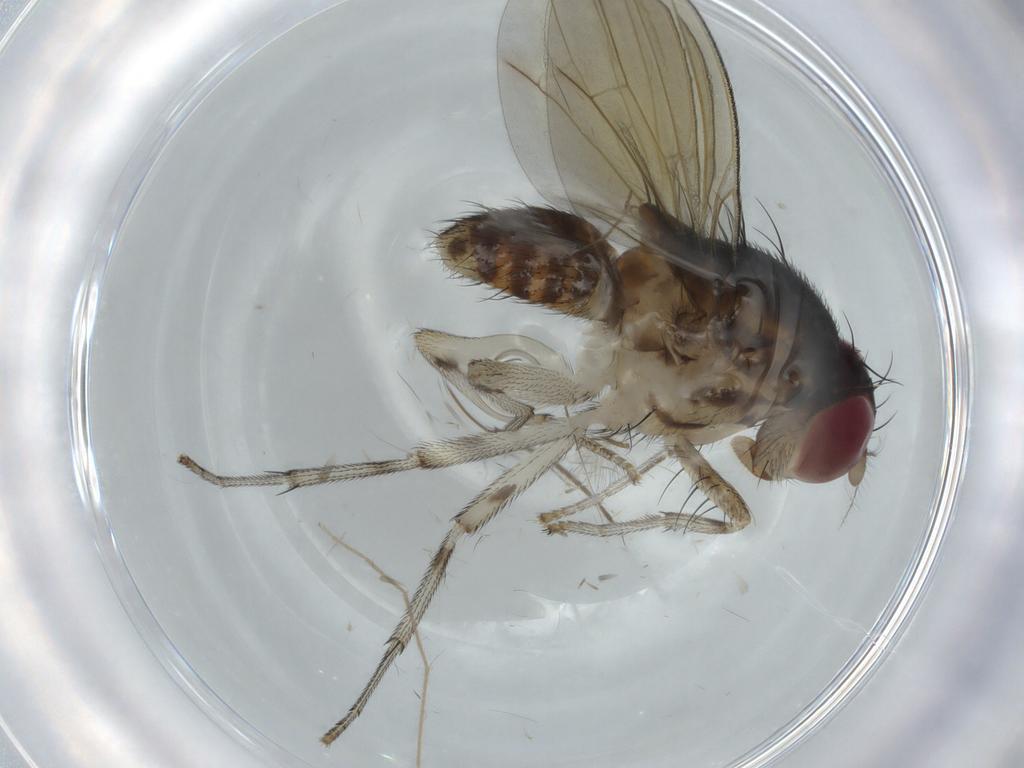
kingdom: Animalia
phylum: Arthropoda
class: Insecta
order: Diptera
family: Chironomidae
